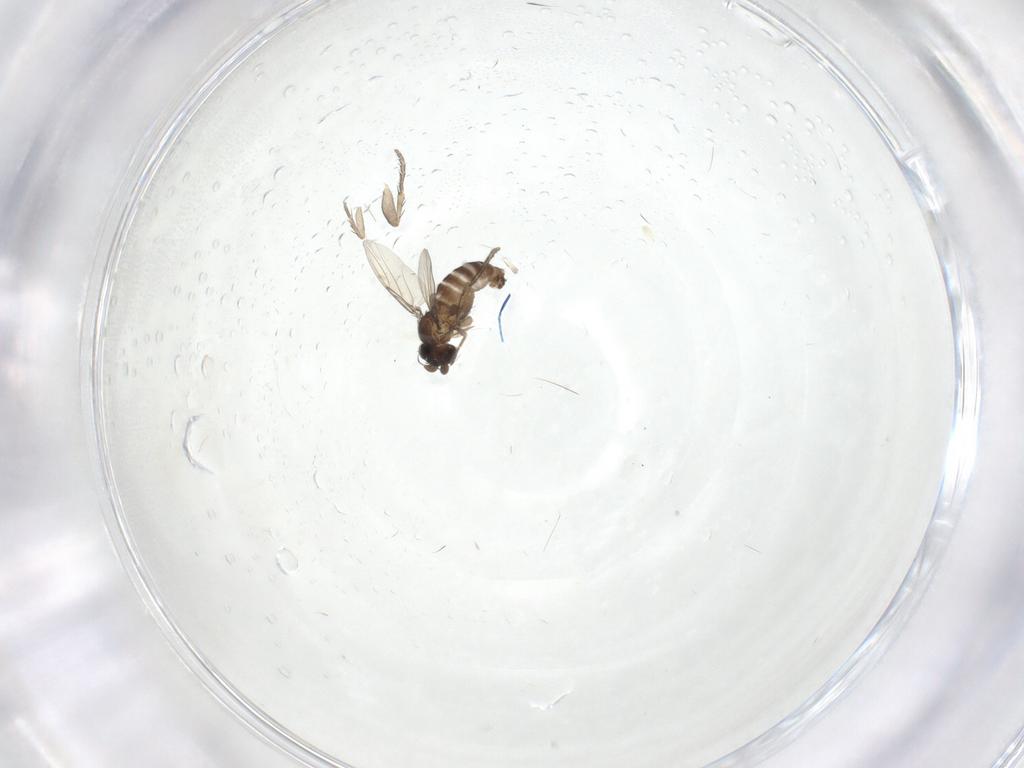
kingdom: Animalia
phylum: Arthropoda
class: Insecta
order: Diptera
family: Phoridae
